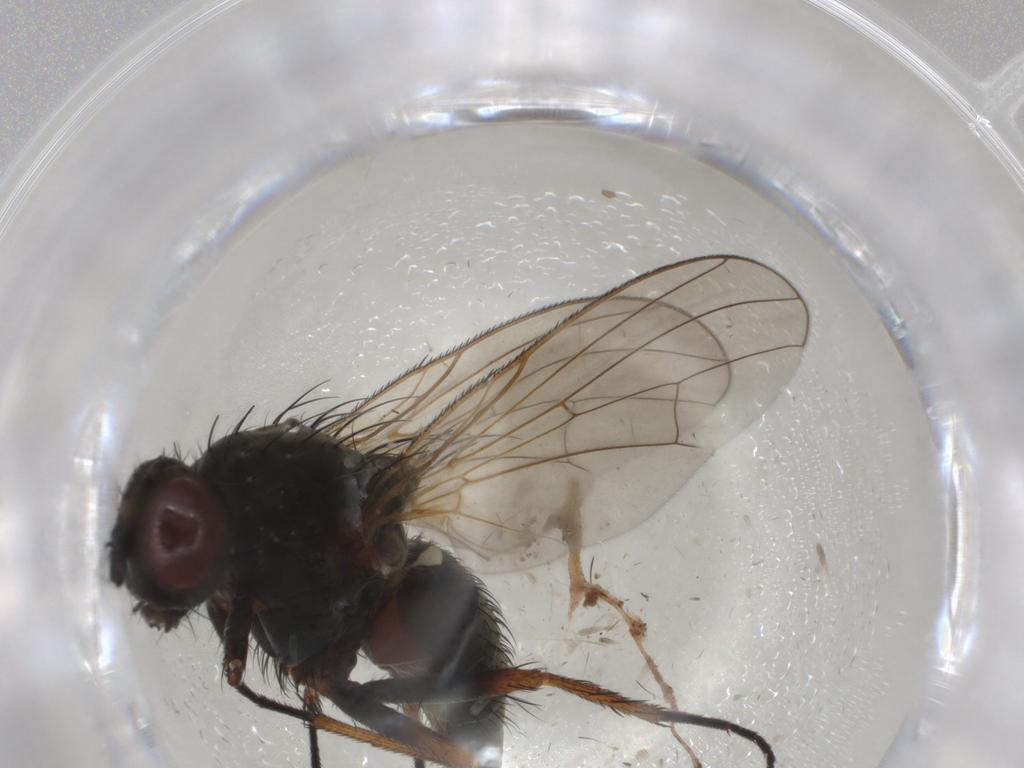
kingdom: Animalia
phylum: Arthropoda
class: Insecta
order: Diptera
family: Anthomyiidae
